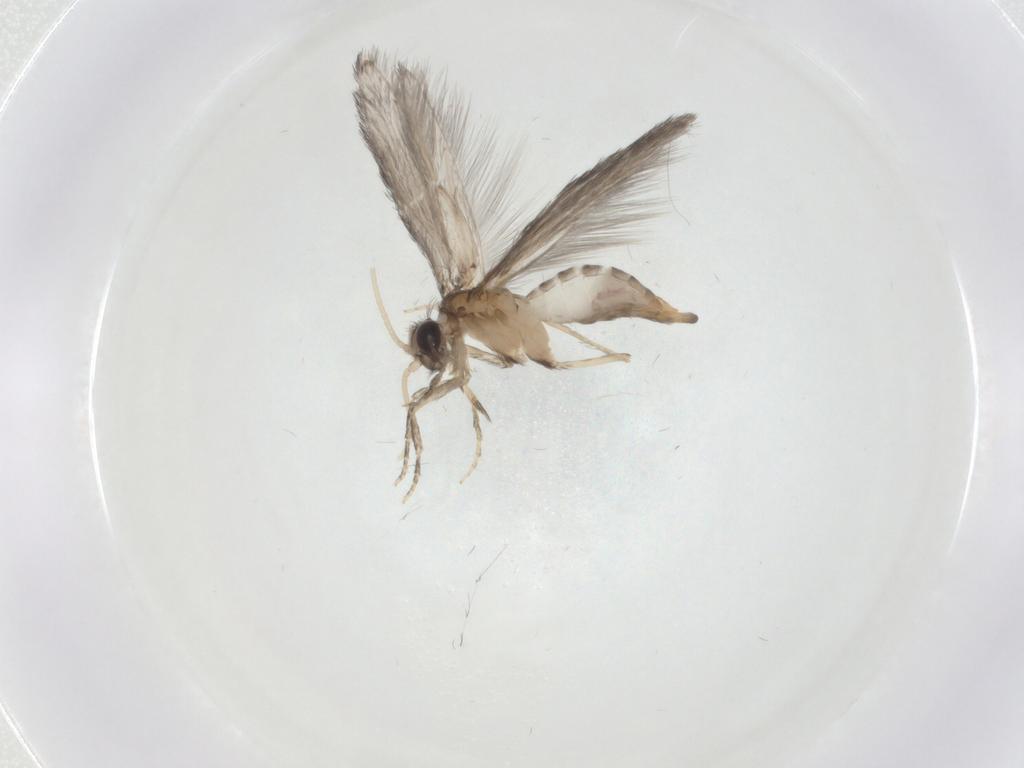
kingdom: Animalia
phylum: Arthropoda
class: Insecta
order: Trichoptera
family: Hydroptilidae
